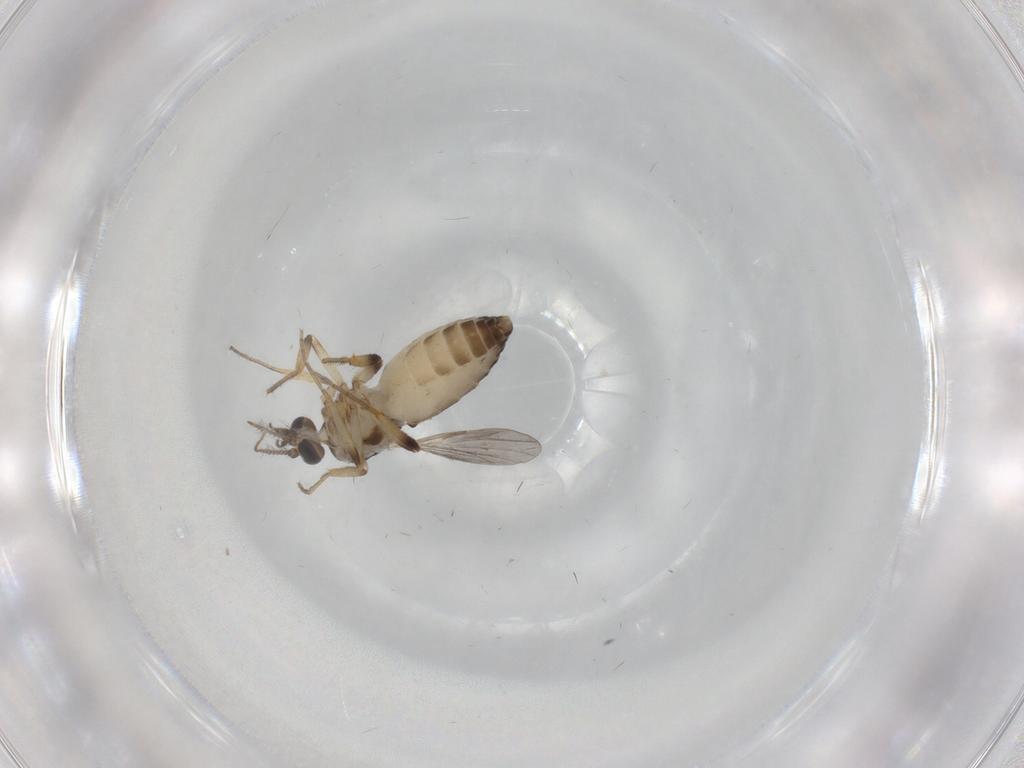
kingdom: Animalia
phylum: Arthropoda
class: Insecta
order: Diptera
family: Ceratopogonidae
